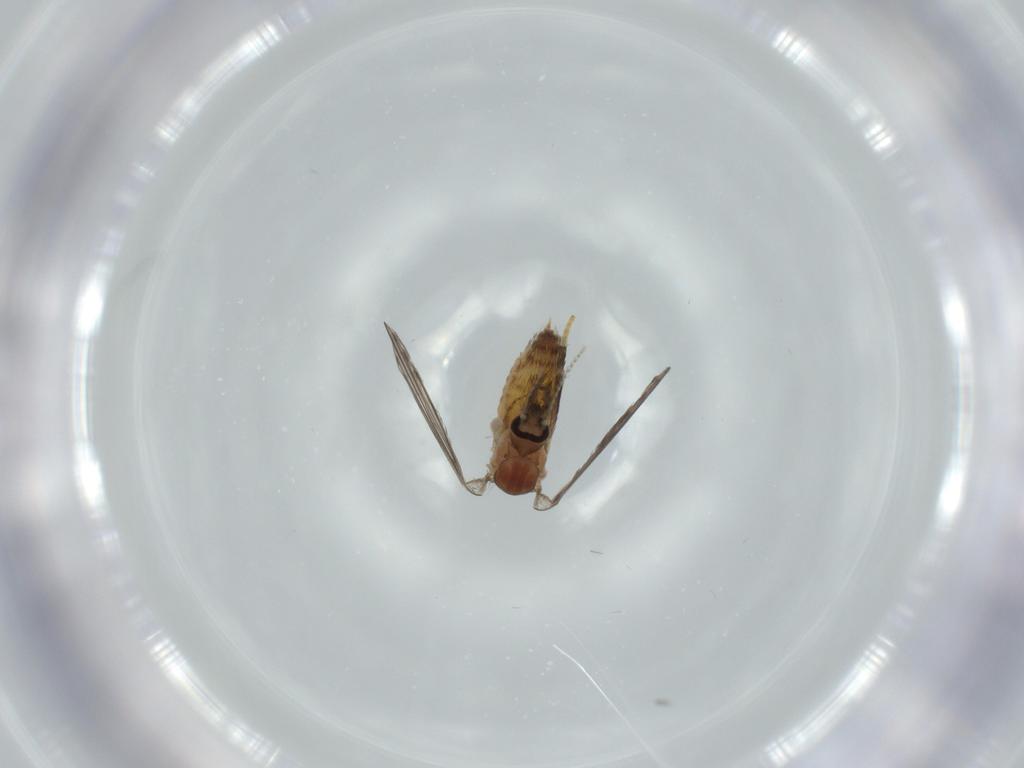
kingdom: Animalia
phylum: Arthropoda
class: Insecta
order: Diptera
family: Psychodidae
